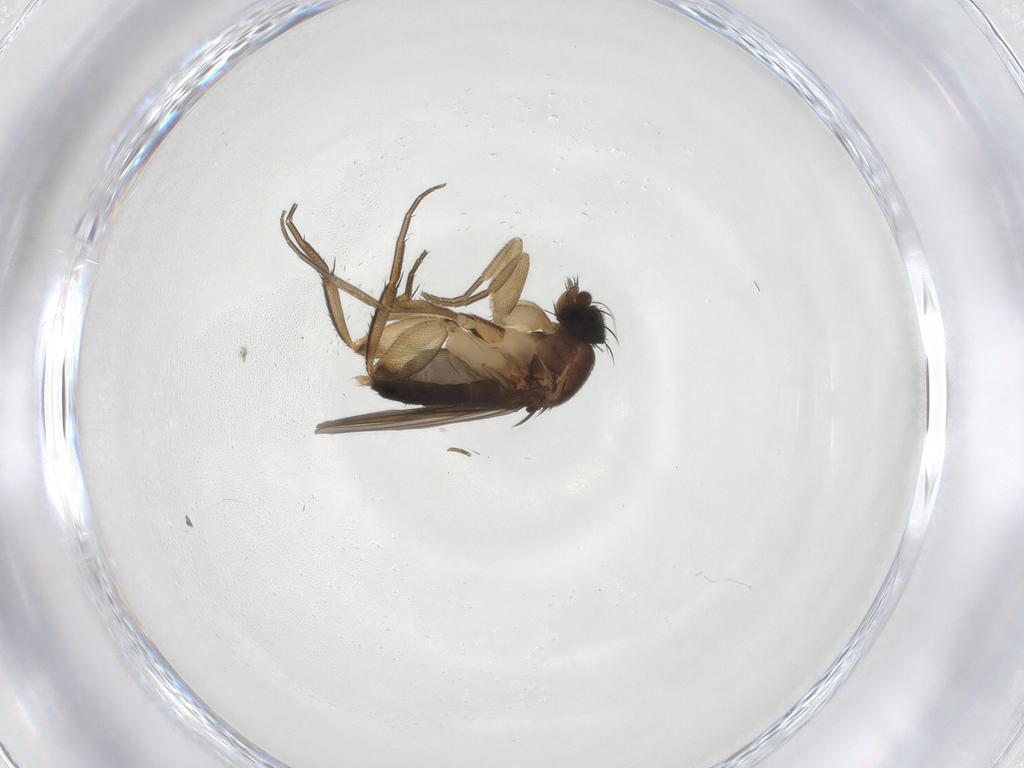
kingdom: Animalia
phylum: Arthropoda
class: Insecta
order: Diptera
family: Phoridae
